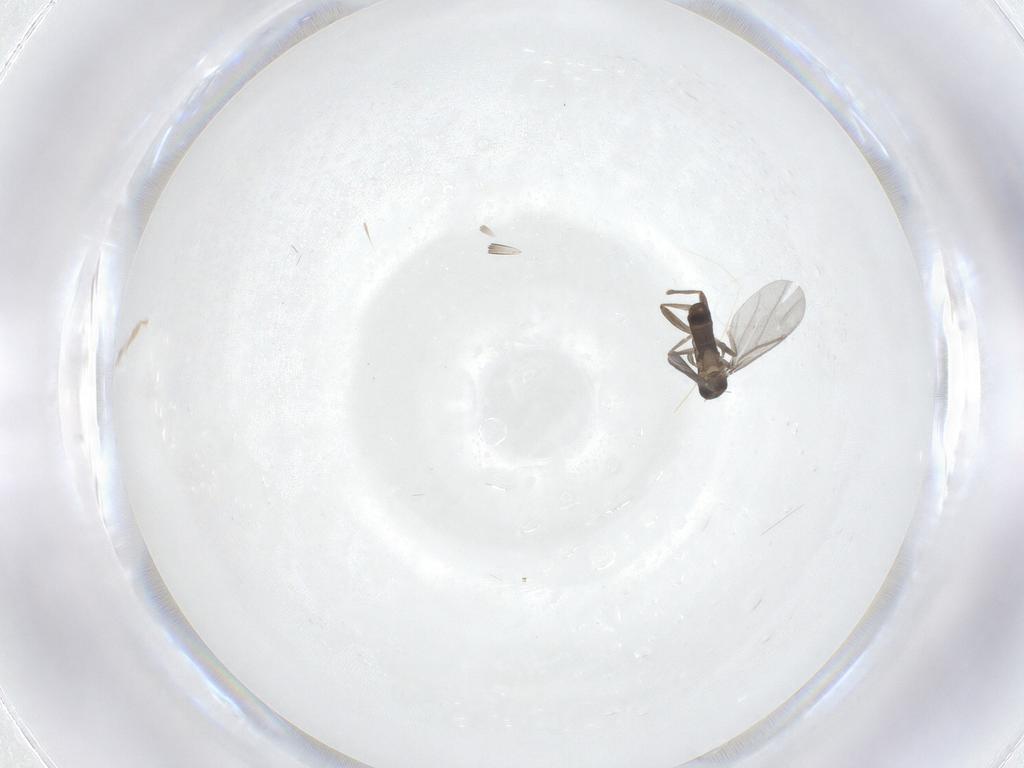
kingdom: Animalia
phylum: Arthropoda
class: Insecta
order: Diptera
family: Cecidomyiidae
